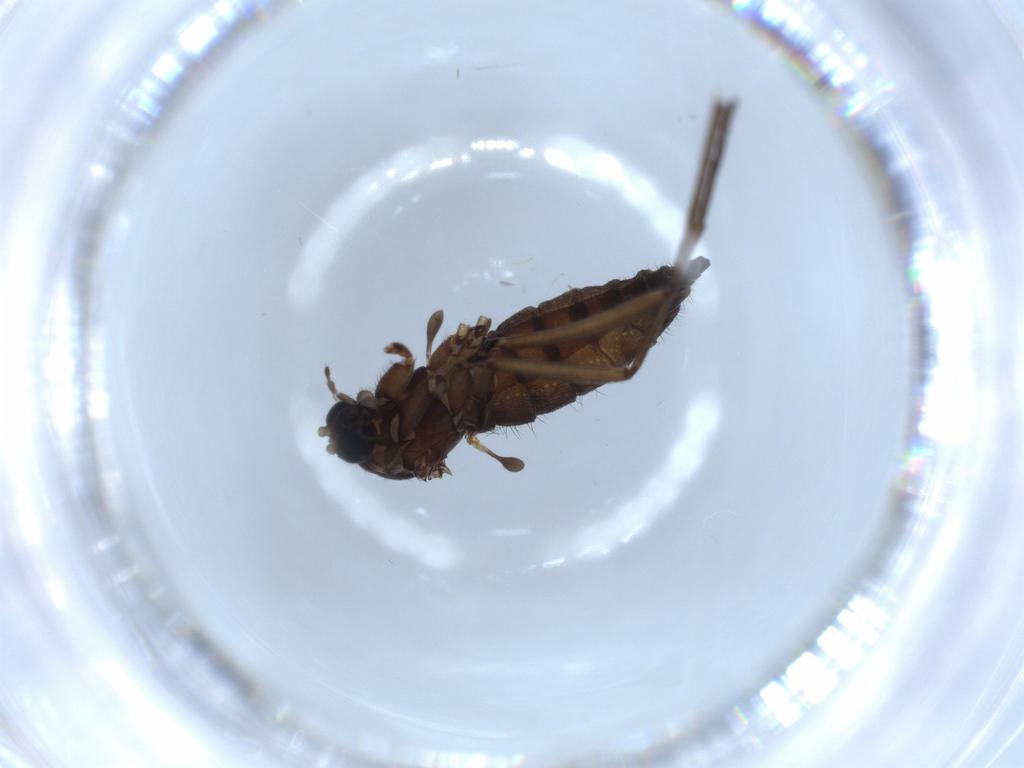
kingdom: Animalia
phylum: Arthropoda
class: Insecta
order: Diptera
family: Sciaridae
